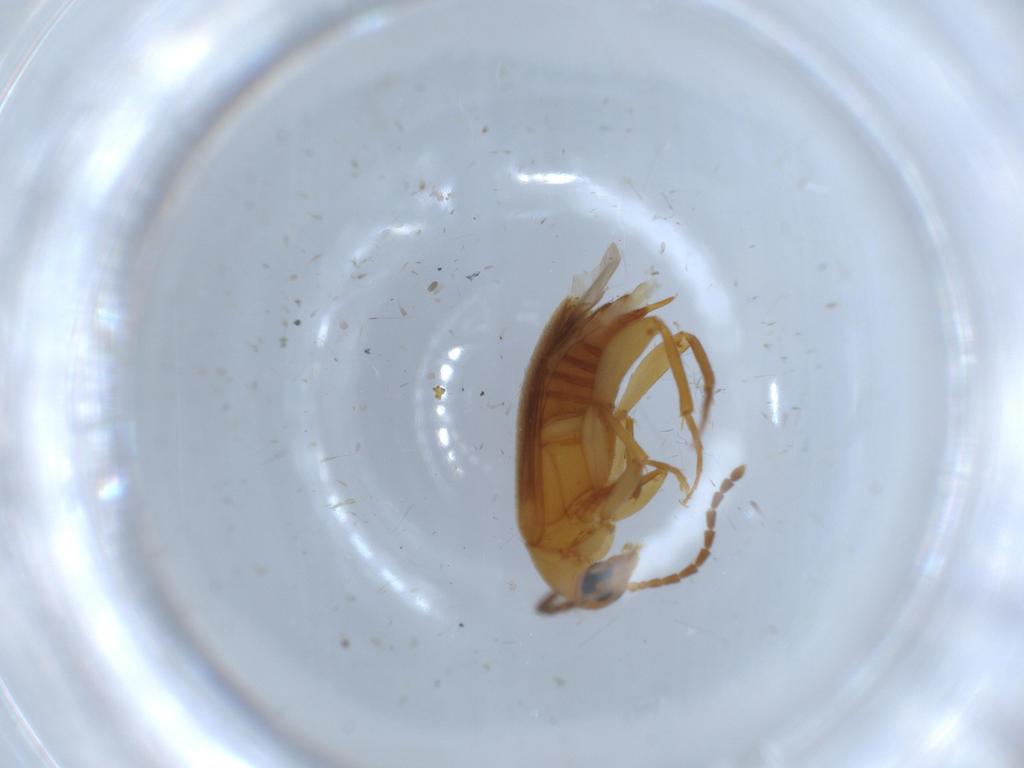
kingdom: Animalia
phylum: Arthropoda
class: Insecta
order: Coleoptera
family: Scraptiidae
